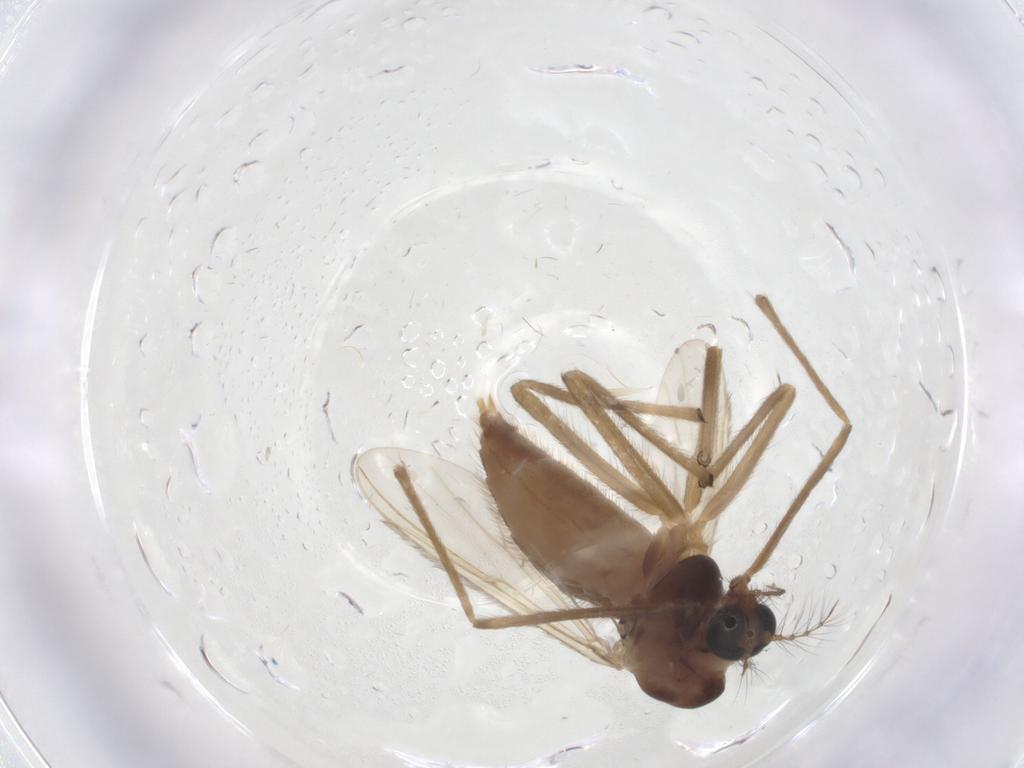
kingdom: Animalia
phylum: Arthropoda
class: Insecta
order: Diptera
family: Chironomidae
